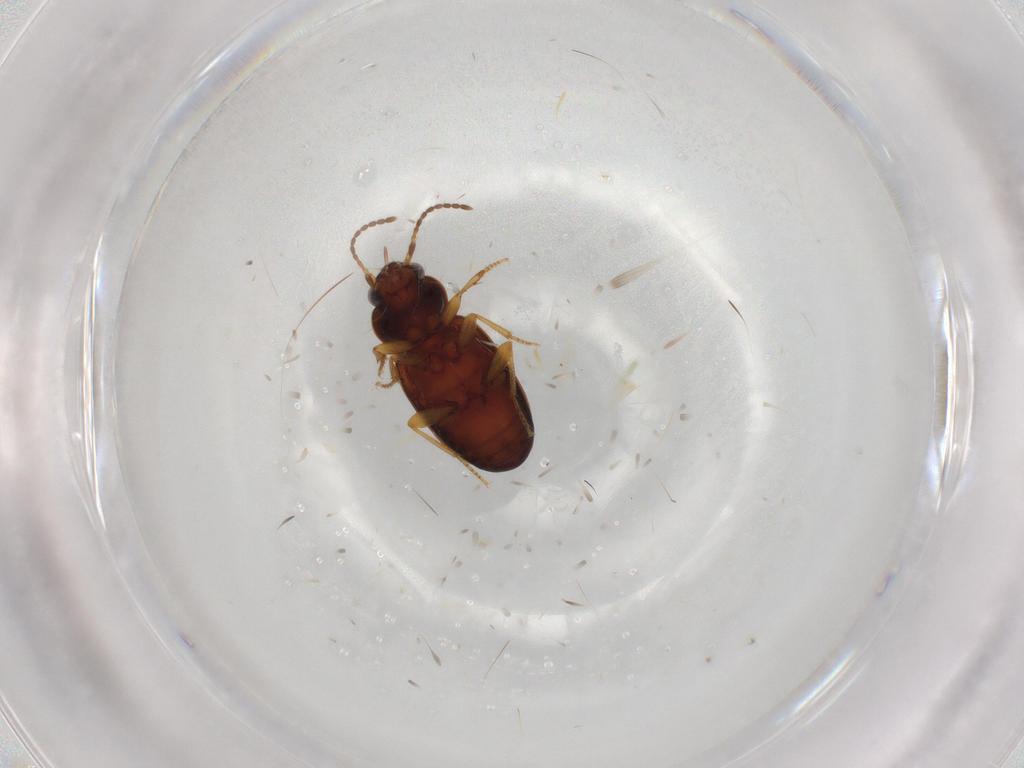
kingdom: Animalia
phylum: Arthropoda
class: Insecta
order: Coleoptera
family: Carabidae
